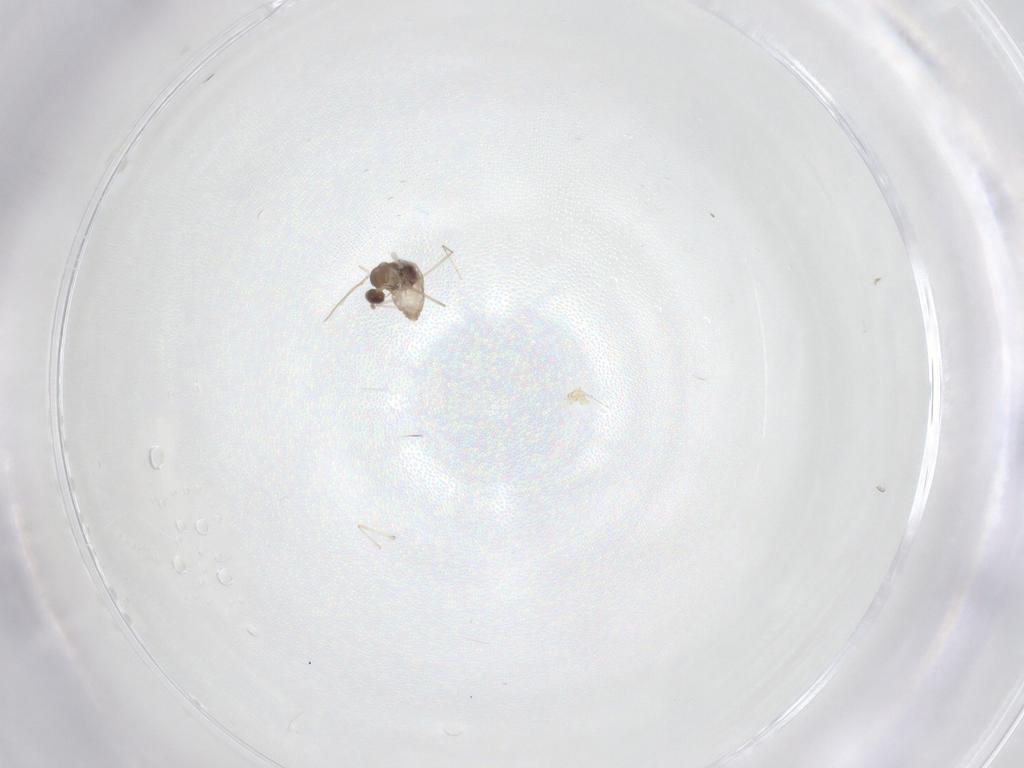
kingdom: Animalia
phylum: Arthropoda
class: Insecta
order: Diptera
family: Cecidomyiidae
